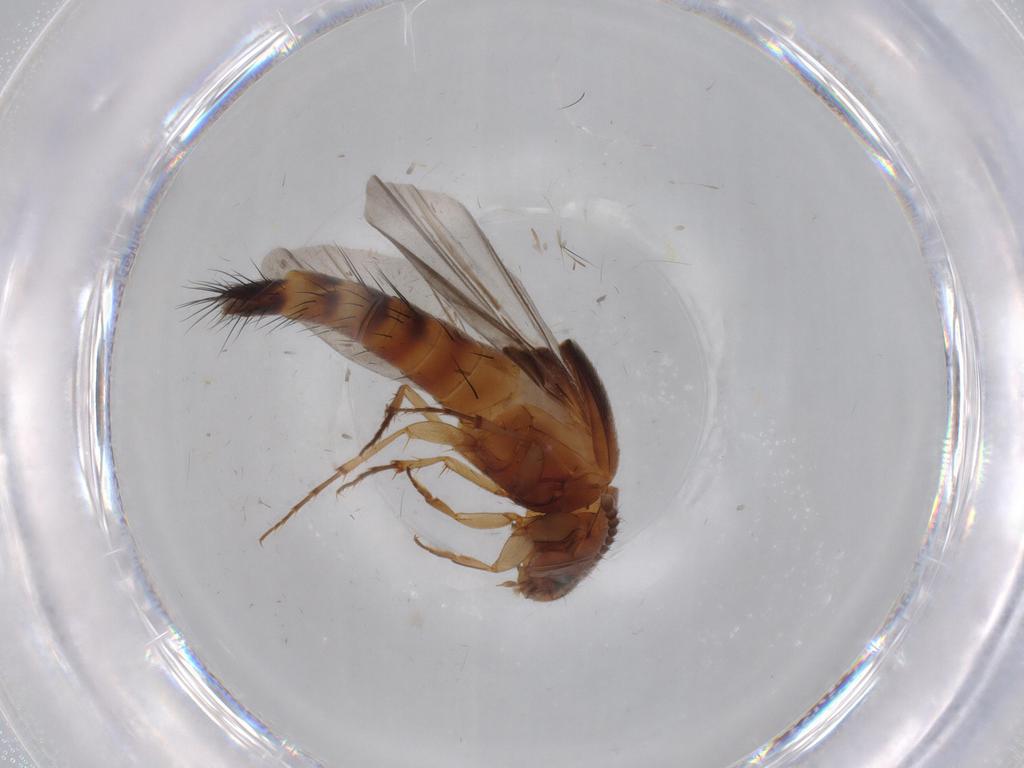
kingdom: Animalia
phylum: Arthropoda
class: Insecta
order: Coleoptera
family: Staphylinidae
